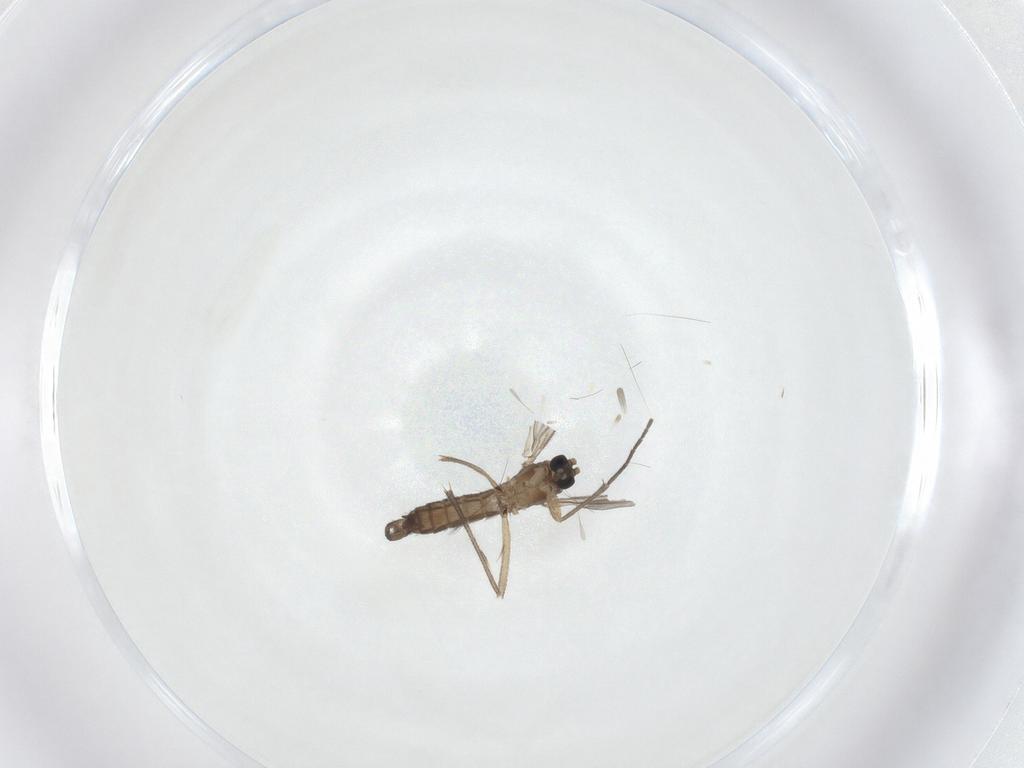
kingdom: Animalia
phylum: Arthropoda
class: Insecta
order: Diptera
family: Sciaridae
